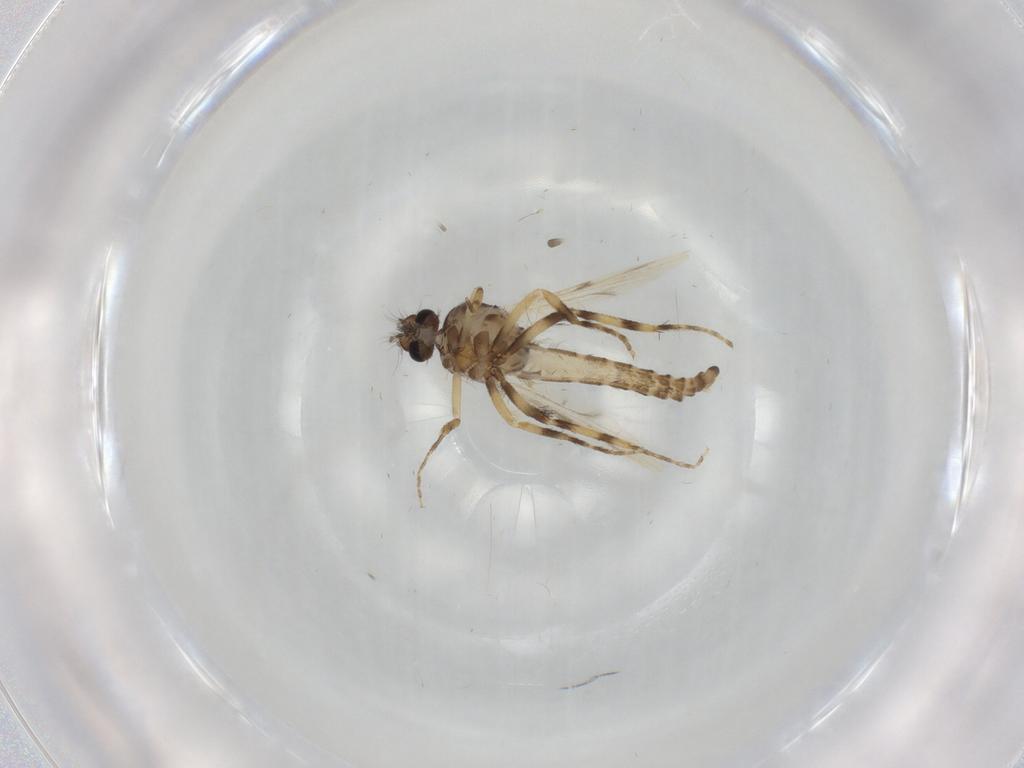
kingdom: Animalia
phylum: Arthropoda
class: Insecta
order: Diptera
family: Ceratopogonidae
